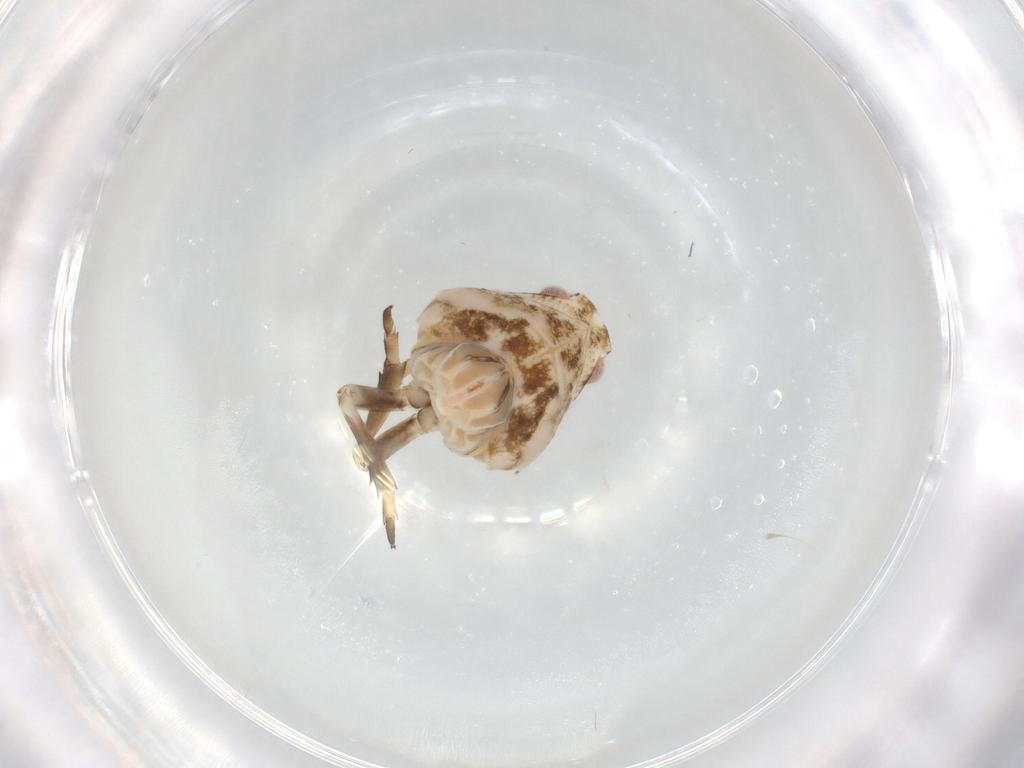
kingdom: Animalia
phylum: Arthropoda
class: Insecta
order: Hemiptera
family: Ricaniidae
